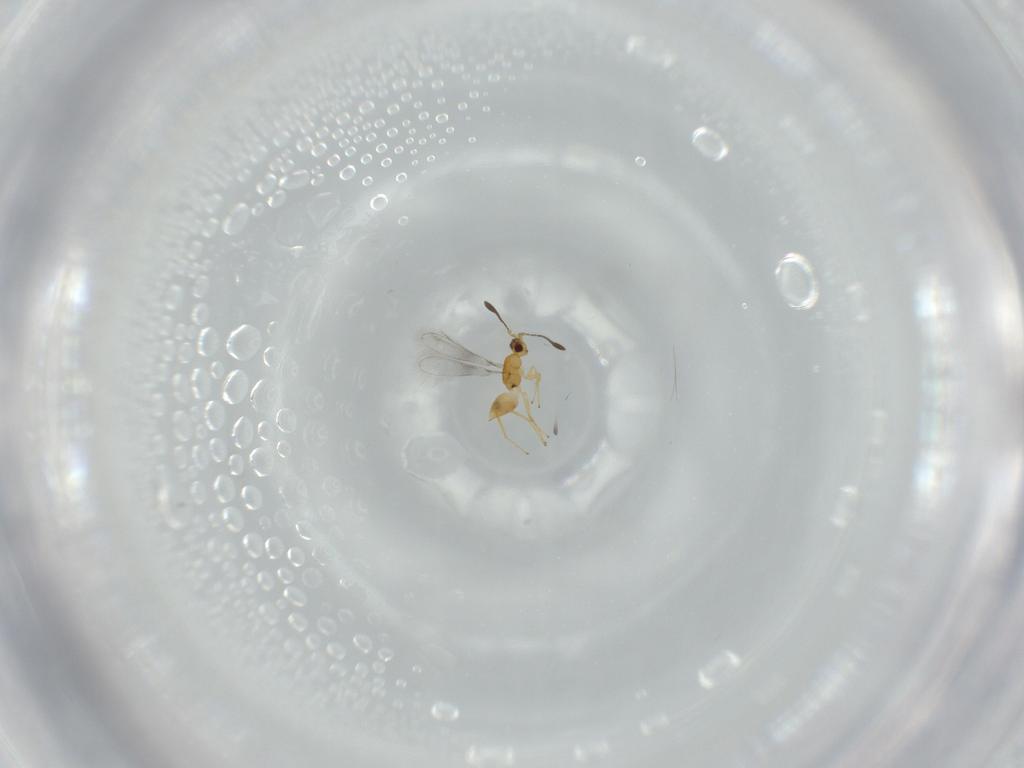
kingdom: Animalia
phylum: Arthropoda
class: Insecta
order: Hymenoptera
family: Mymaridae
